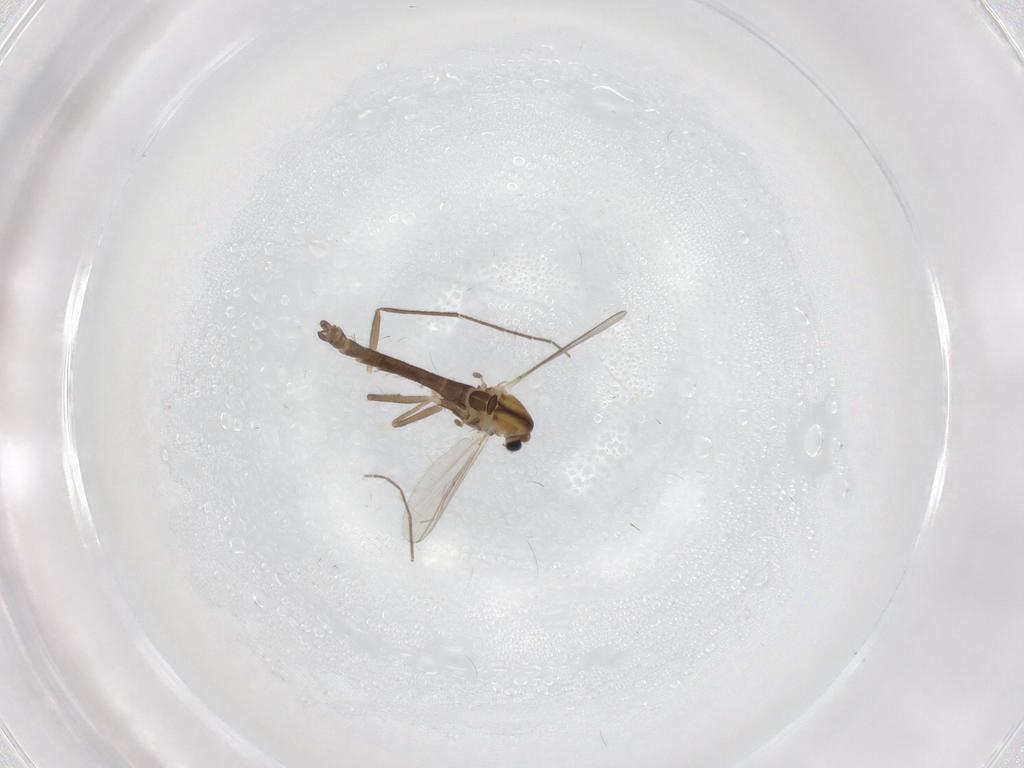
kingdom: Animalia
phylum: Arthropoda
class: Insecta
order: Diptera
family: Chironomidae
